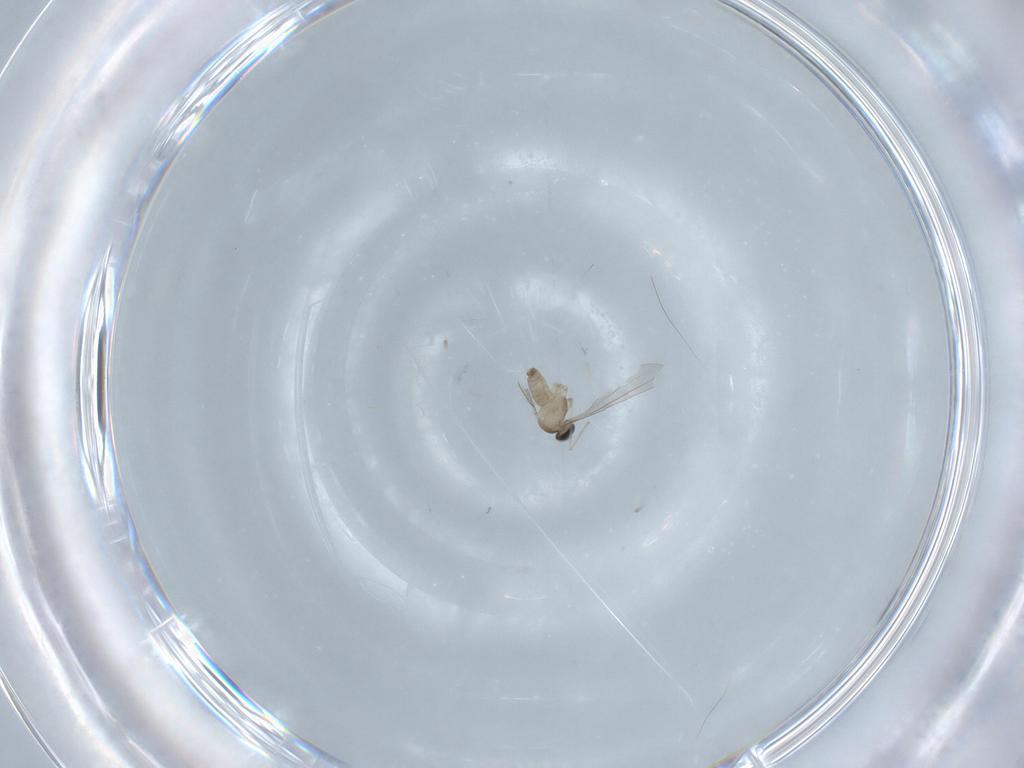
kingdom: Animalia
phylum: Arthropoda
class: Insecta
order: Diptera
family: Cecidomyiidae
